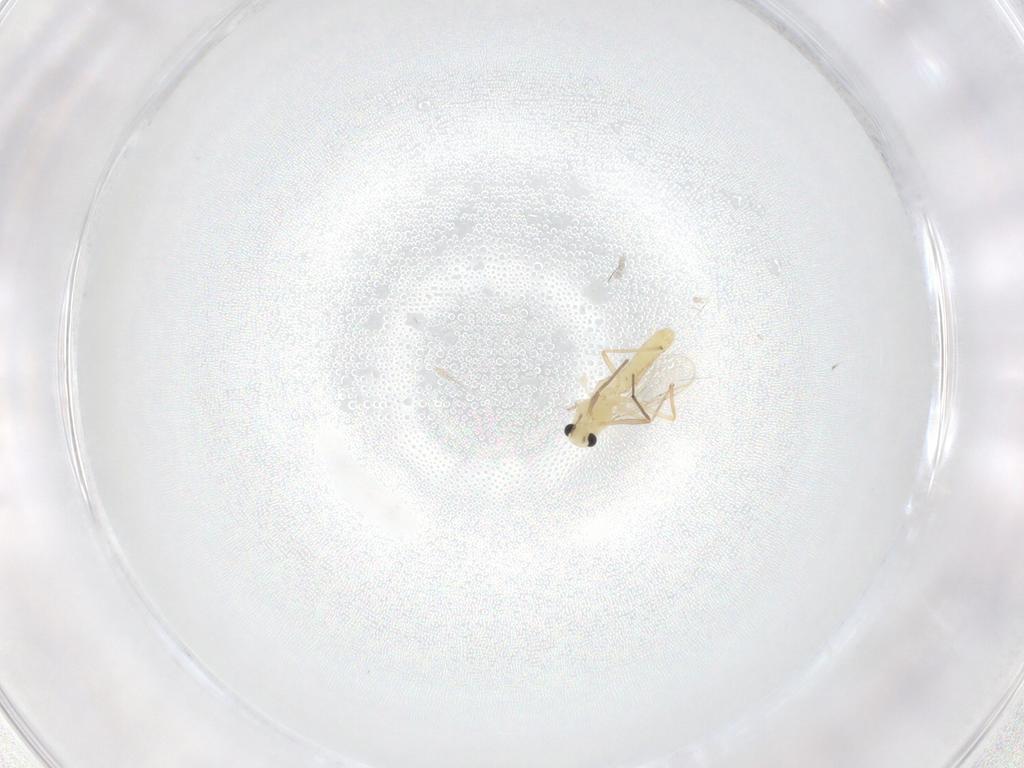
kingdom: Animalia
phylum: Arthropoda
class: Insecta
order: Diptera
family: Chironomidae
